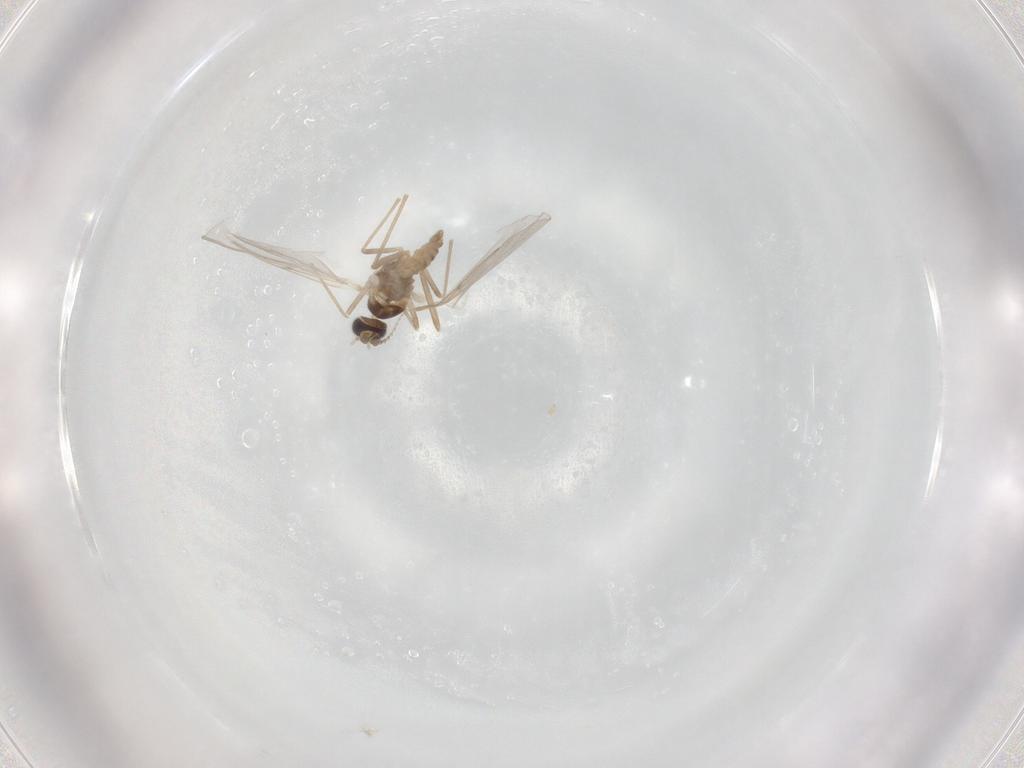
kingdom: Animalia
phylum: Arthropoda
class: Insecta
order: Diptera
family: Cecidomyiidae
